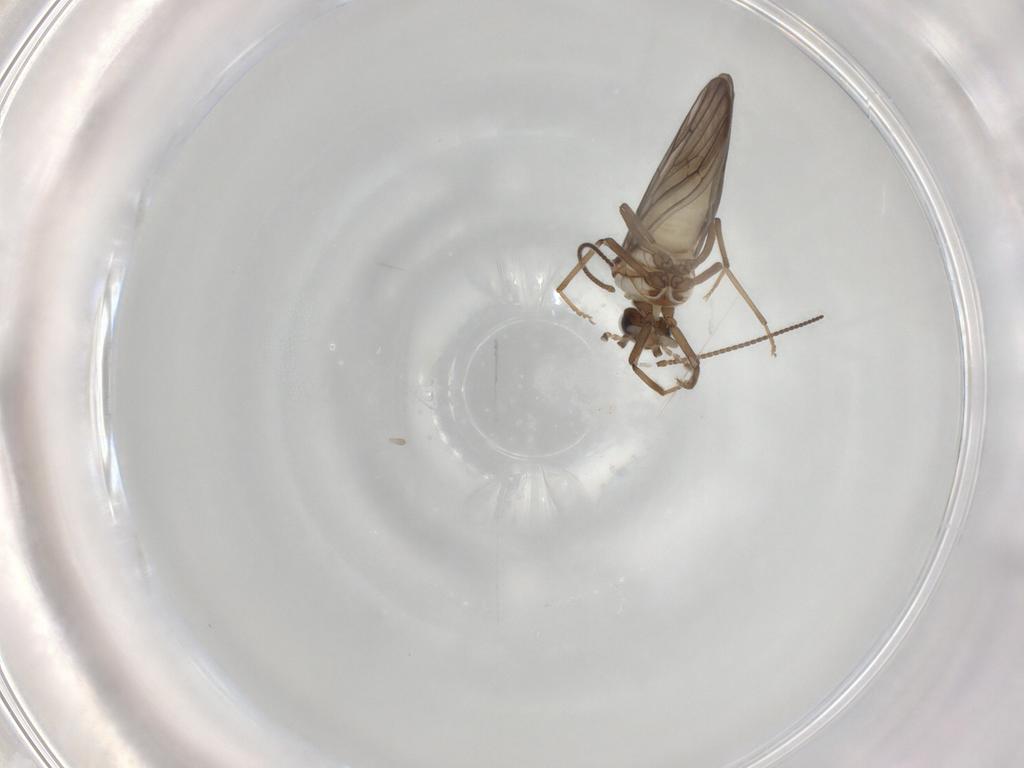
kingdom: Animalia
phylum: Arthropoda
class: Insecta
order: Neuroptera
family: Coniopterygidae
